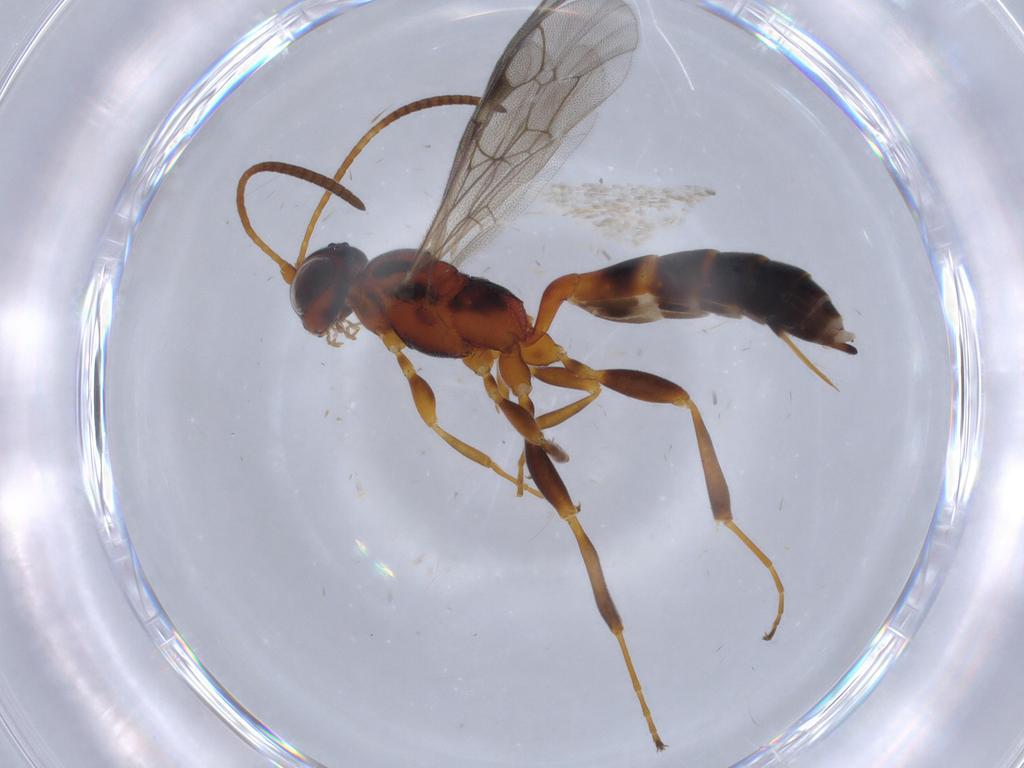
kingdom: Animalia
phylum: Arthropoda
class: Insecta
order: Hymenoptera
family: Ichneumonidae
